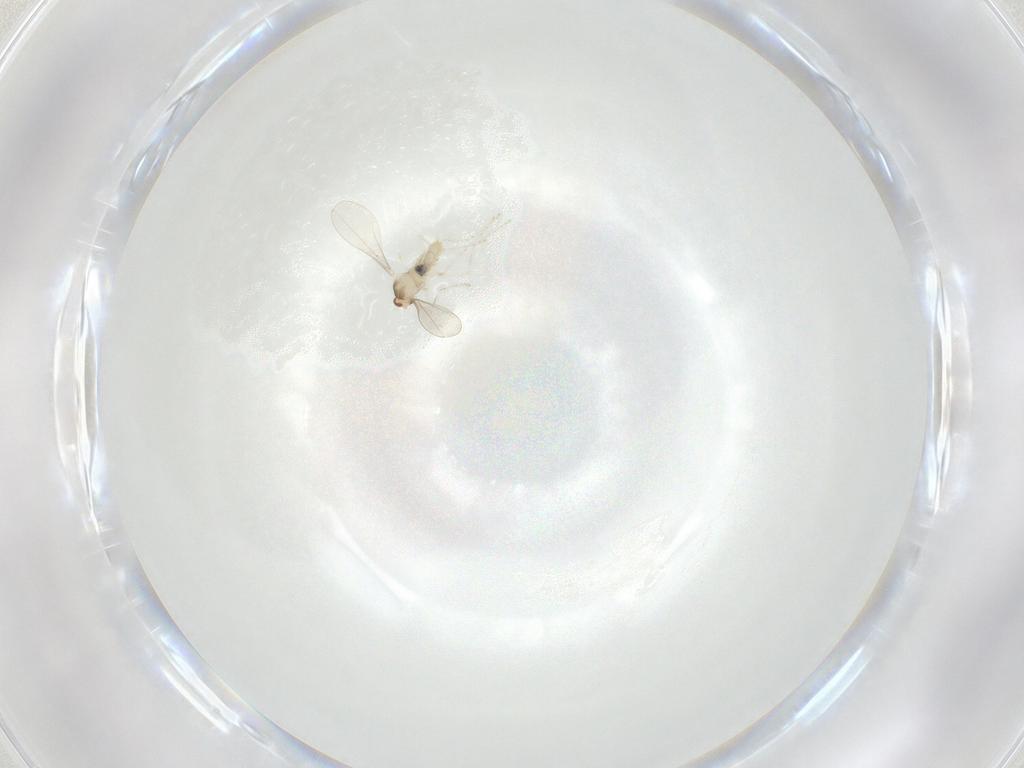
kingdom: Animalia
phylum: Arthropoda
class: Insecta
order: Diptera
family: Cecidomyiidae
